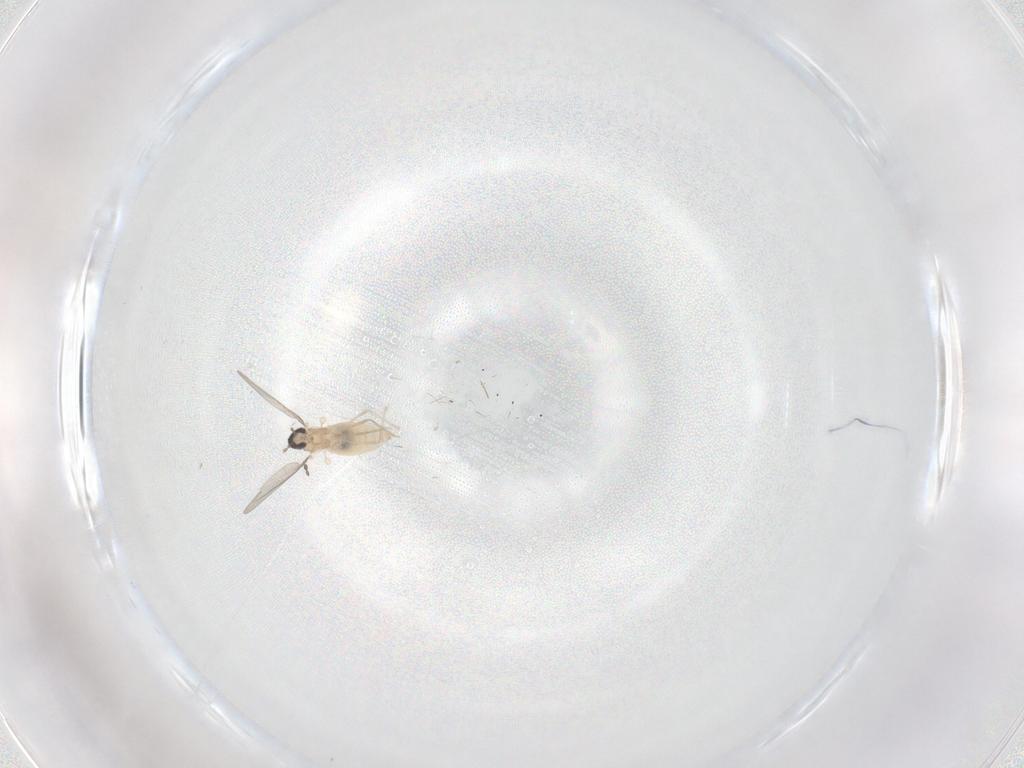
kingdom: Animalia
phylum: Arthropoda
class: Insecta
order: Diptera
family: Cecidomyiidae
